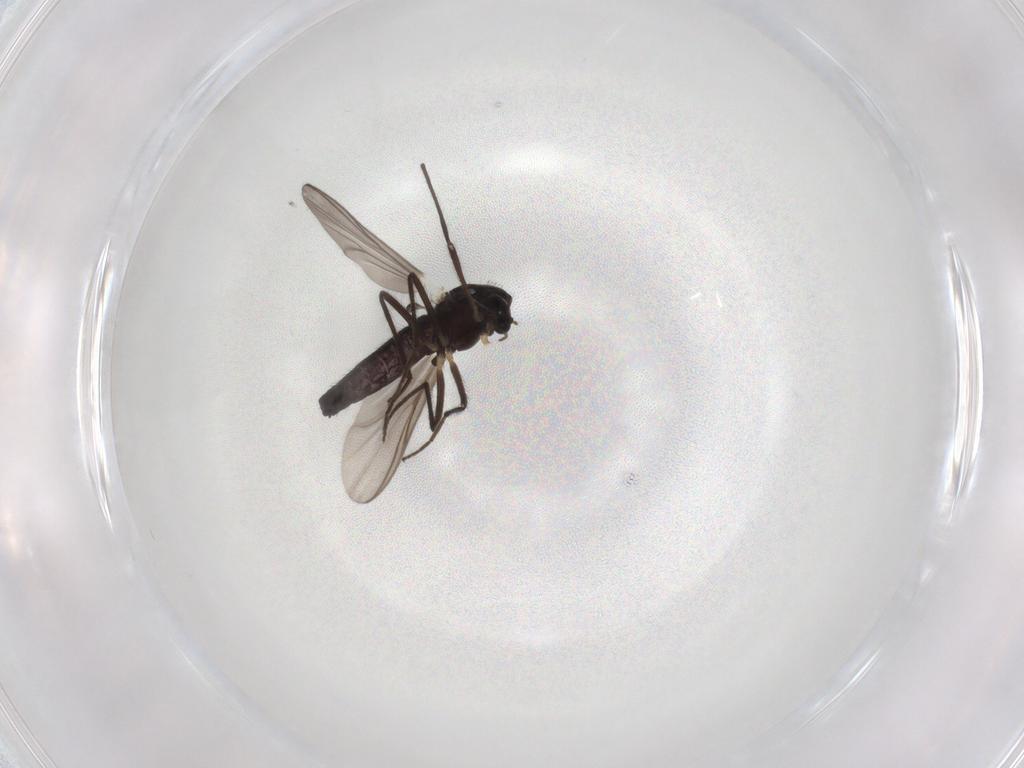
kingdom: Animalia
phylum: Arthropoda
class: Insecta
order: Diptera
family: Chironomidae
